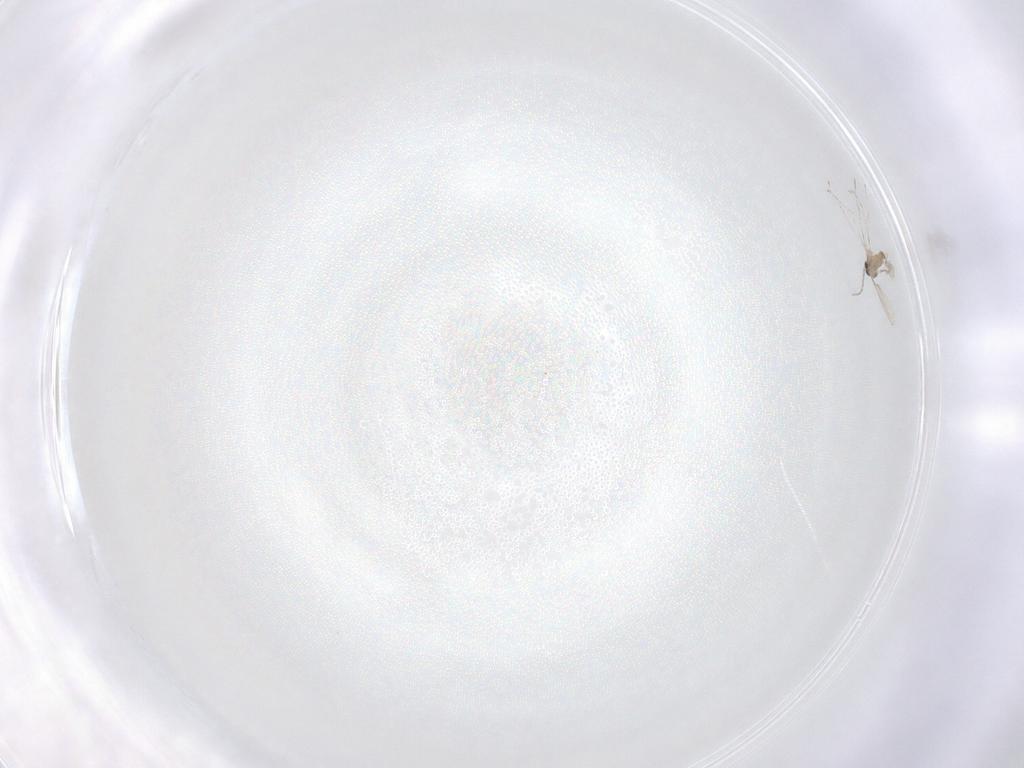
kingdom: Animalia
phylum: Arthropoda
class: Insecta
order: Diptera
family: Cecidomyiidae
